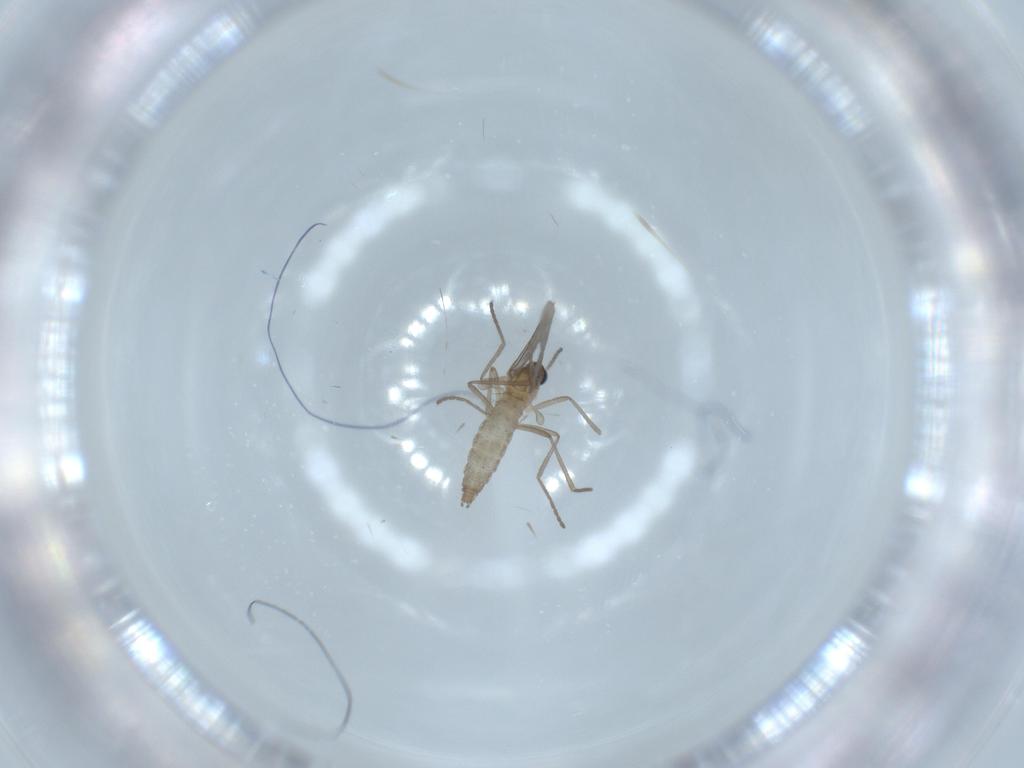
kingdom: Animalia
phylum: Arthropoda
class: Insecta
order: Diptera
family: Cecidomyiidae
